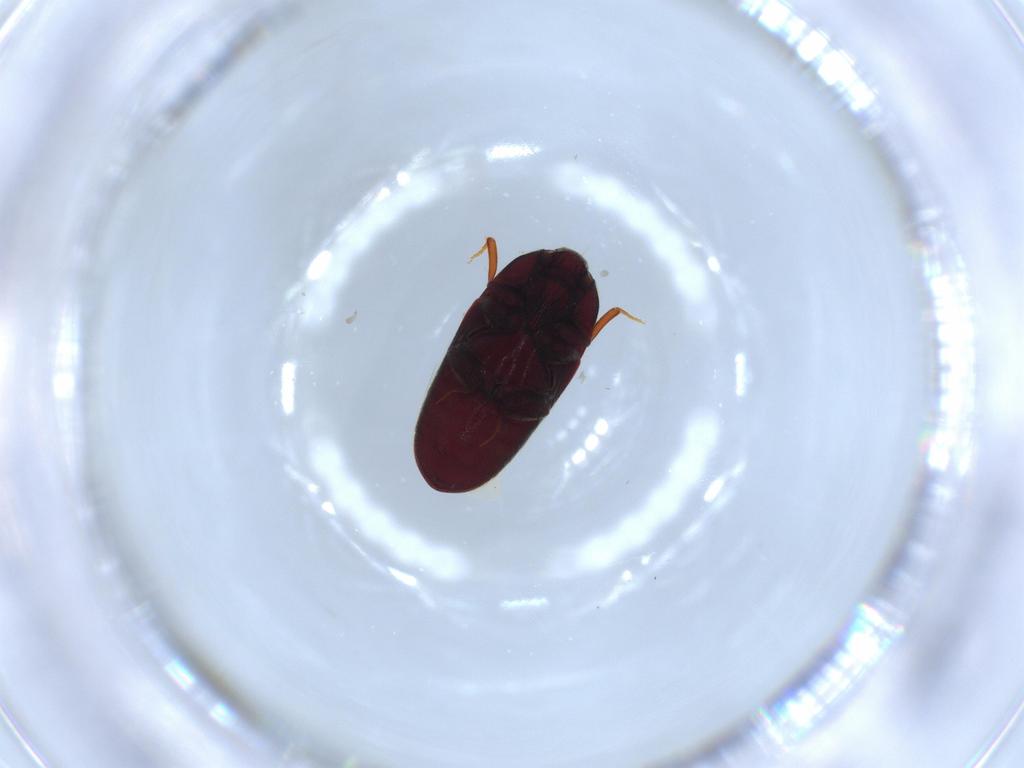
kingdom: Animalia
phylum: Arthropoda
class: Insecta
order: Coleoptera
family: Throscidae
